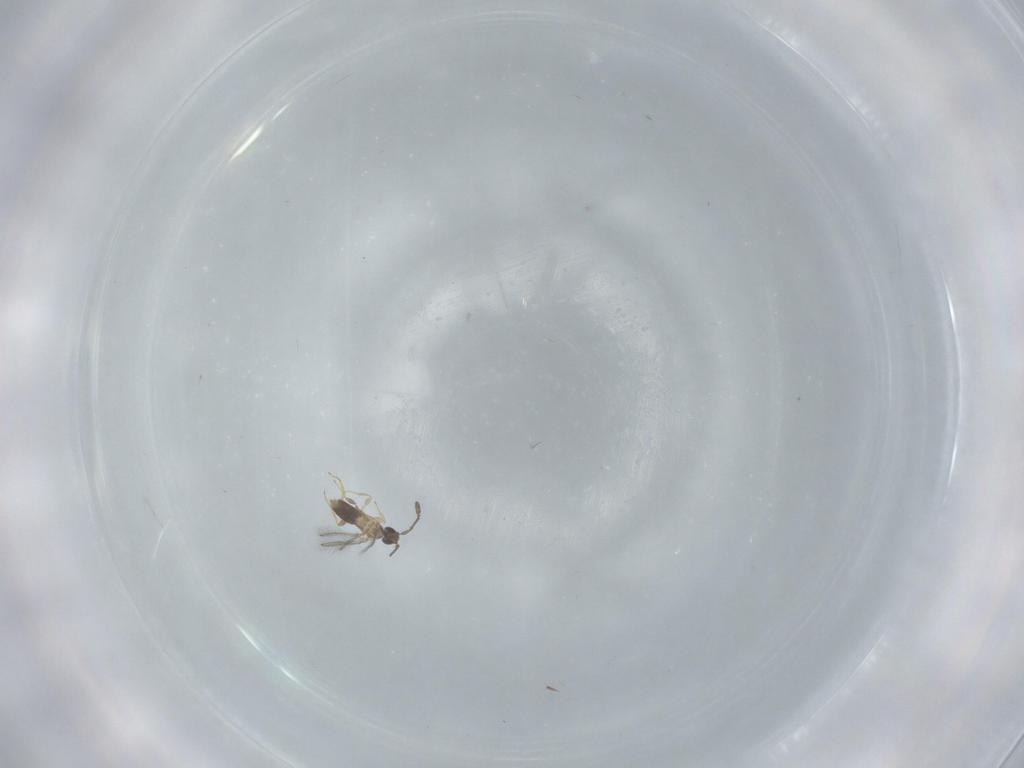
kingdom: Animalia
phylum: Arthropoda
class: Insecta
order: Hymenoptera
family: Mymaridae
